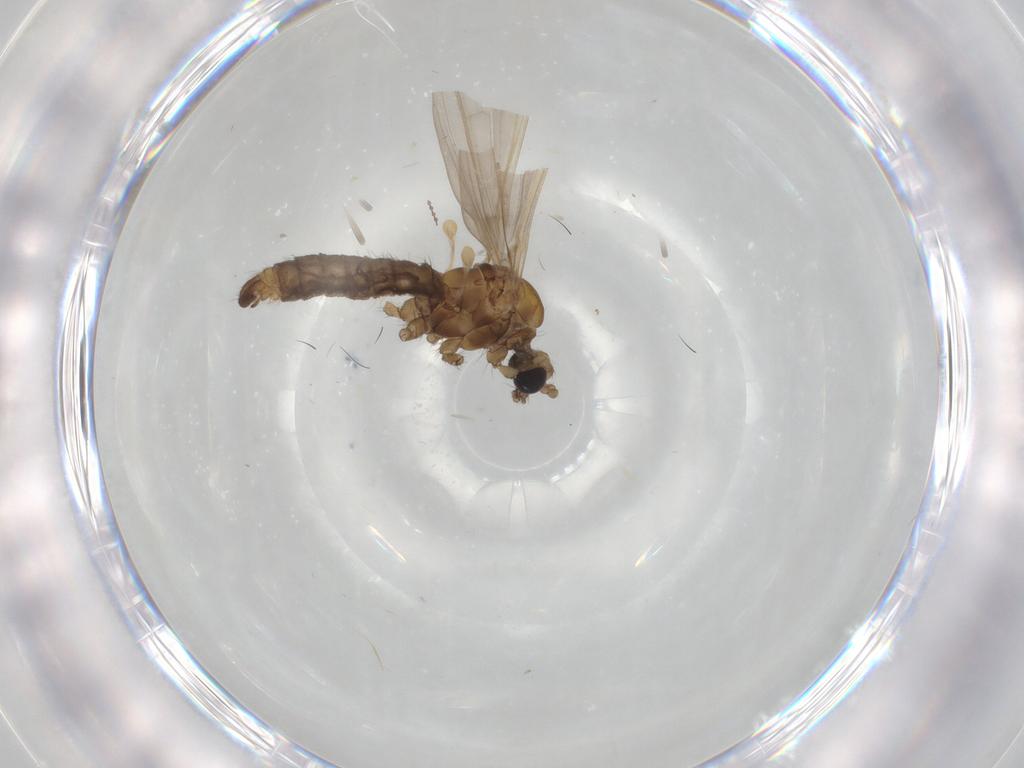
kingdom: Animalia
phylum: Arthropoda
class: Insecta
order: Diptera
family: Limoniidae
